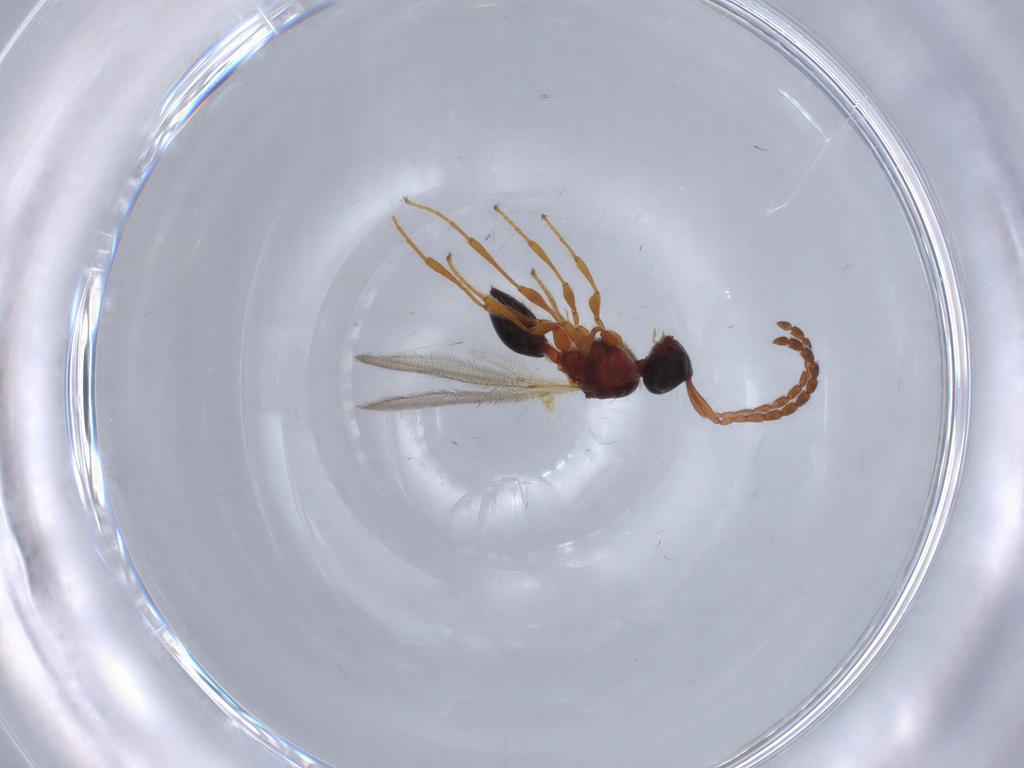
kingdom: Animalia
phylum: Arthropoda
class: Insecta
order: Hymenoptera
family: Diapriidae
